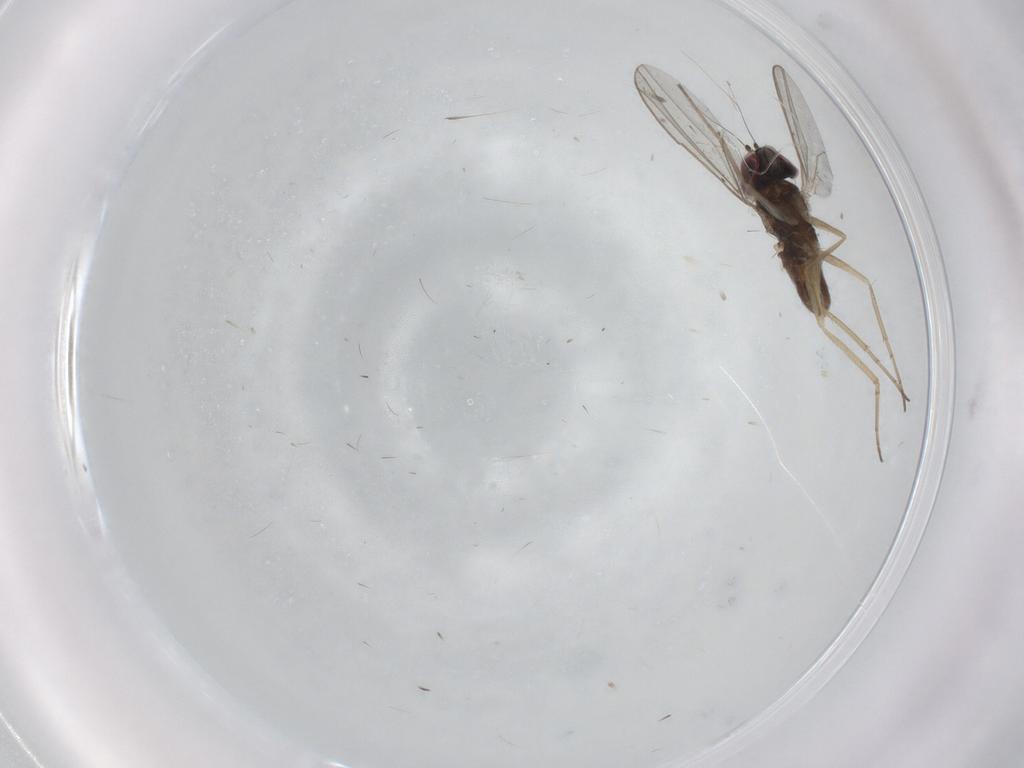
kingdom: Animalia
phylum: Arthropoda
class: Insecta
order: Diptera
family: Dolichopodidae
